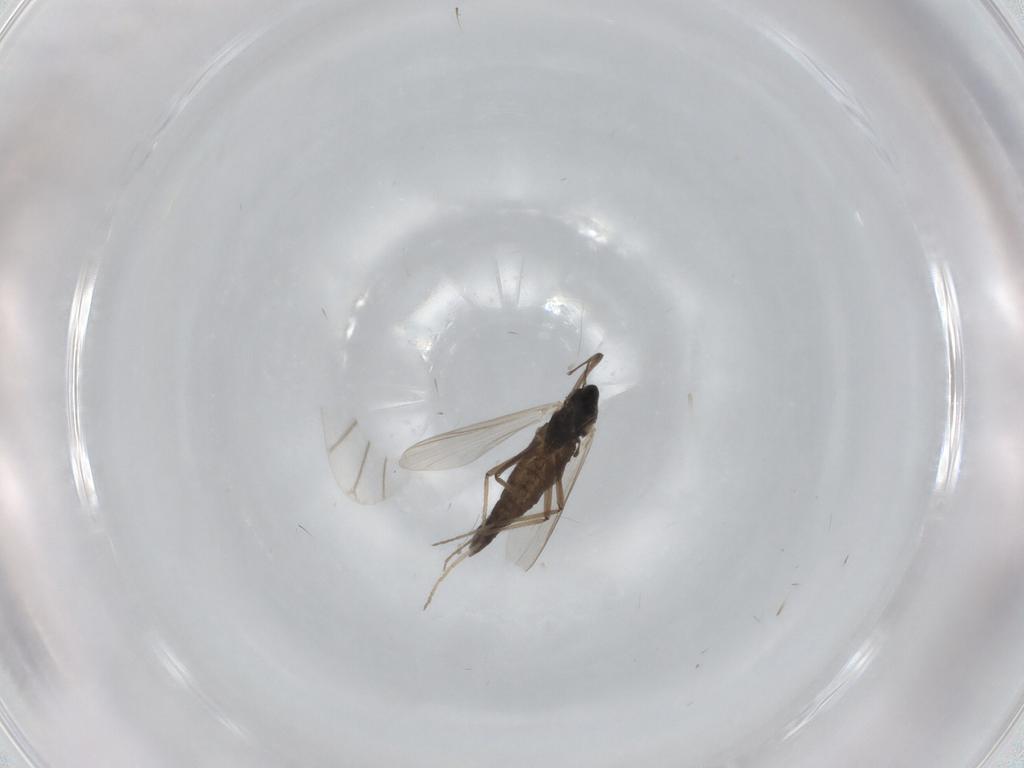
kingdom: Animalia
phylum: Arthropoda
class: Insecta
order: Diptera
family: Chironomidae
